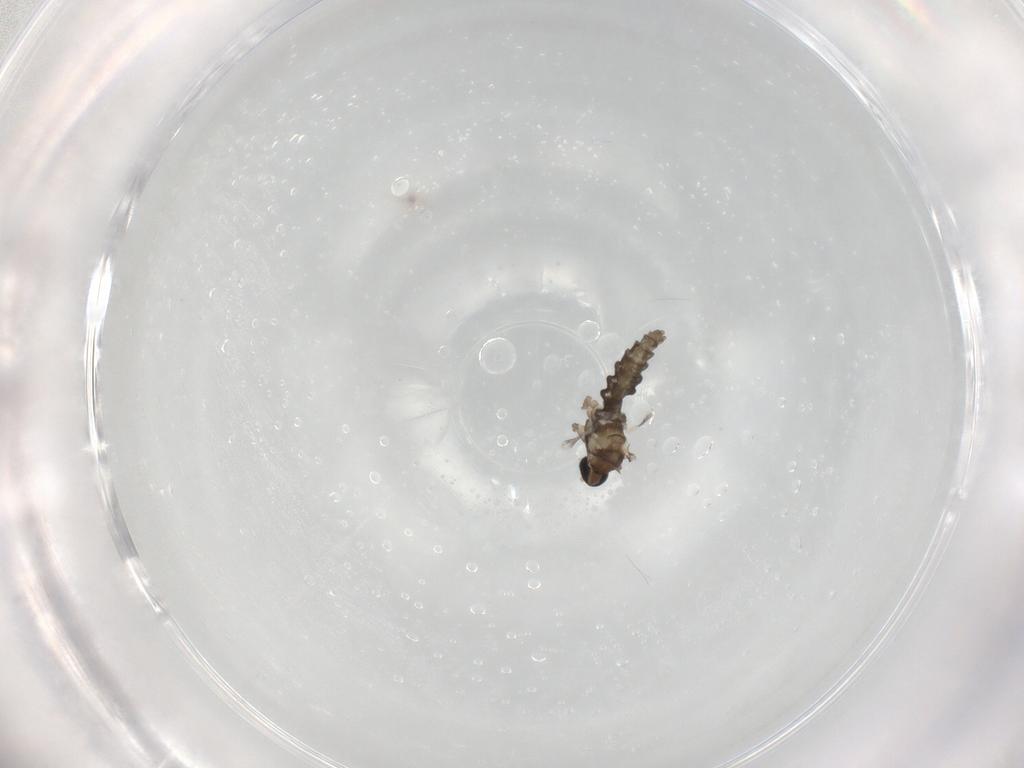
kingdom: Animalia
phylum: Arthropoda
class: Insecta
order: Diptera
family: Cecidomyiidae
